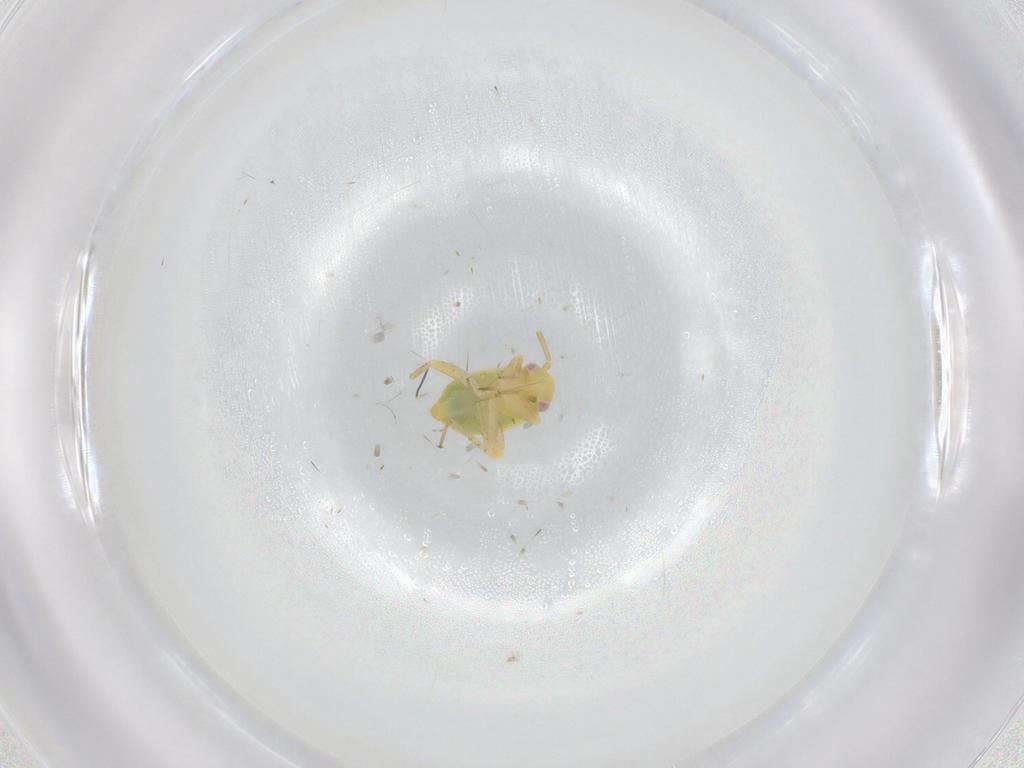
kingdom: Animalia
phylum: Arthropoda
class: Insecta
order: Hemiptera
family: Miridae
